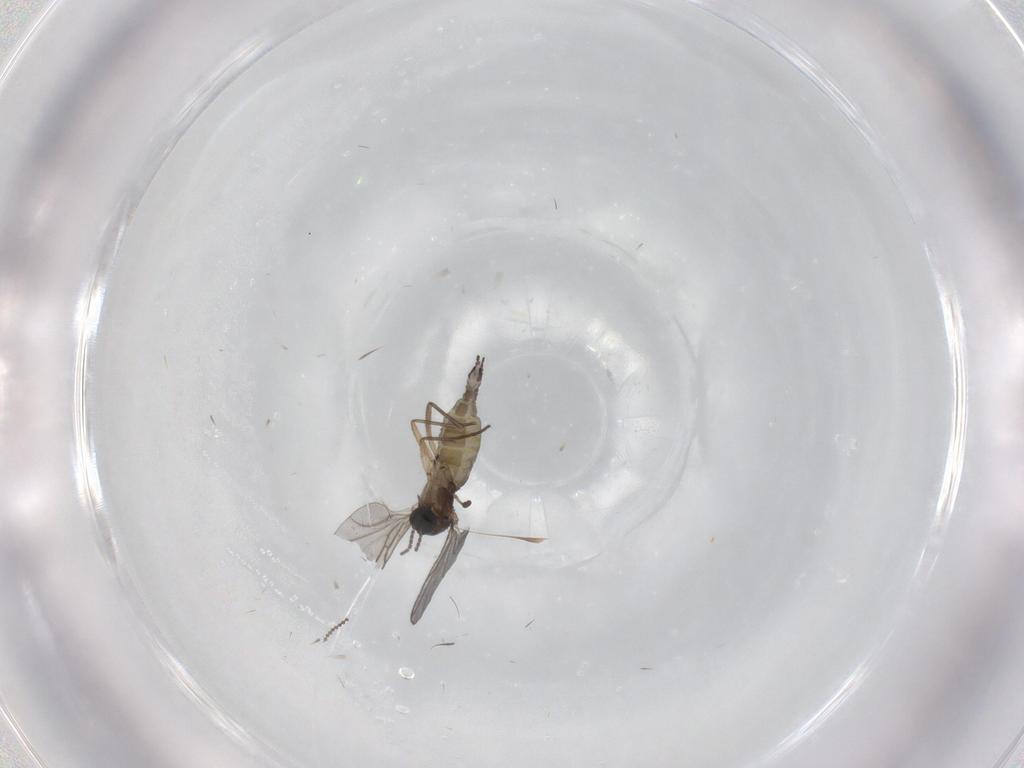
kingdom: Animalia
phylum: Arthropoda
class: Insecta
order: Diptera
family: Sciaridae
